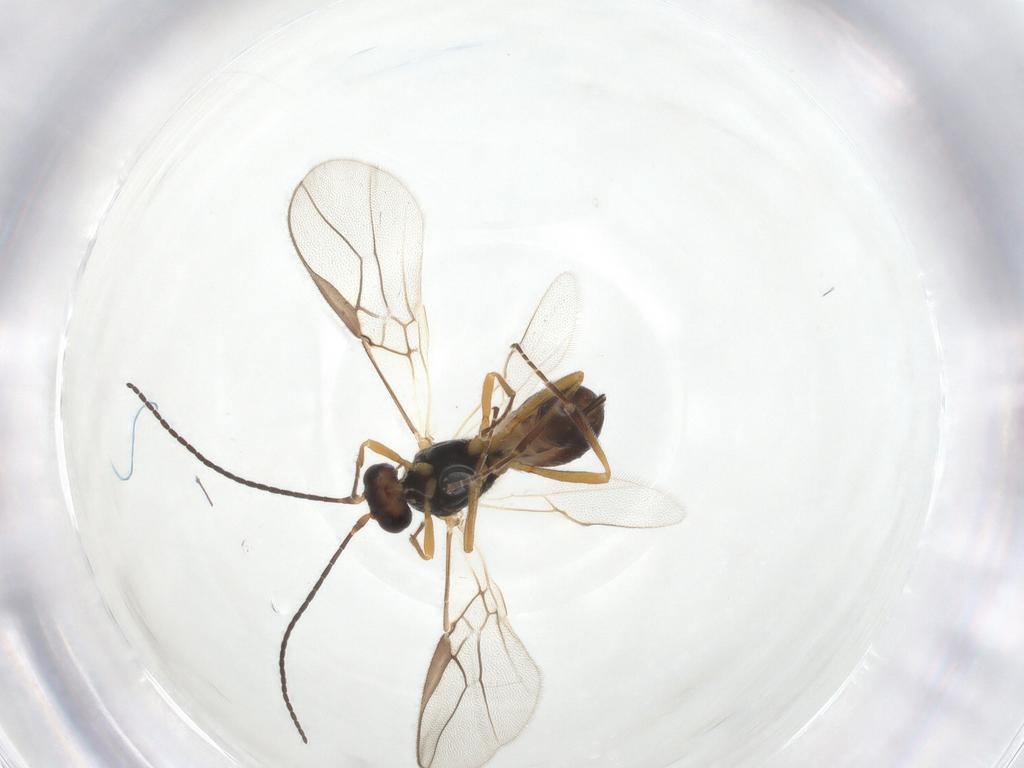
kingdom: Animalia
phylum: Arthropoda
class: Insecta
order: Hymenoptera
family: Braconidae
